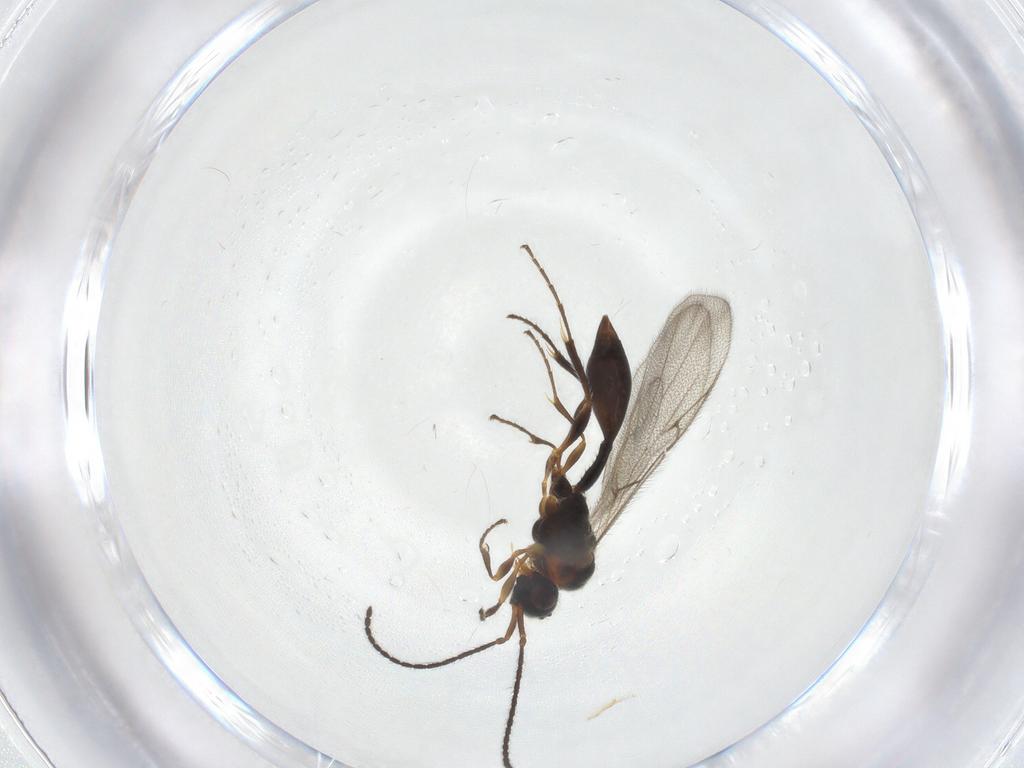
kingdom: Animalia
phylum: Arthropoda
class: Insecta
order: Hymenoptera
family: Diapriidae
